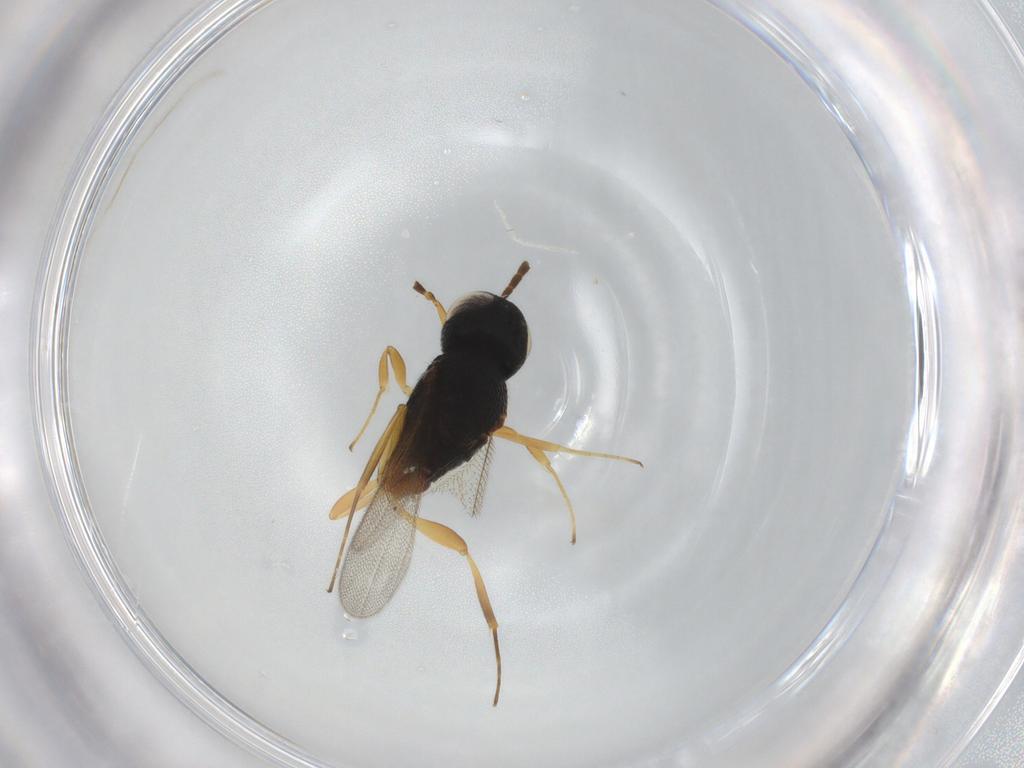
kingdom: Animalia
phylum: Arthropoda
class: Insecta
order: Hymenoptera
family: Scelionidae
